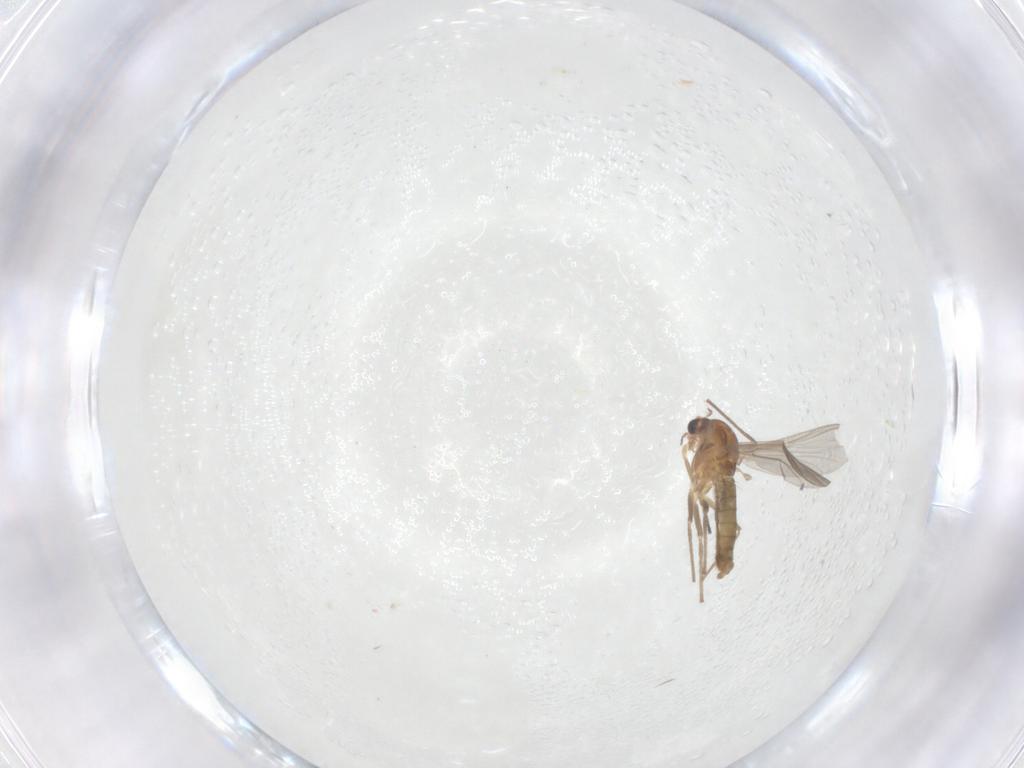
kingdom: Animalia
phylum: Arthropoda
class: Insecta
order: Diptera
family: Chironomidae
